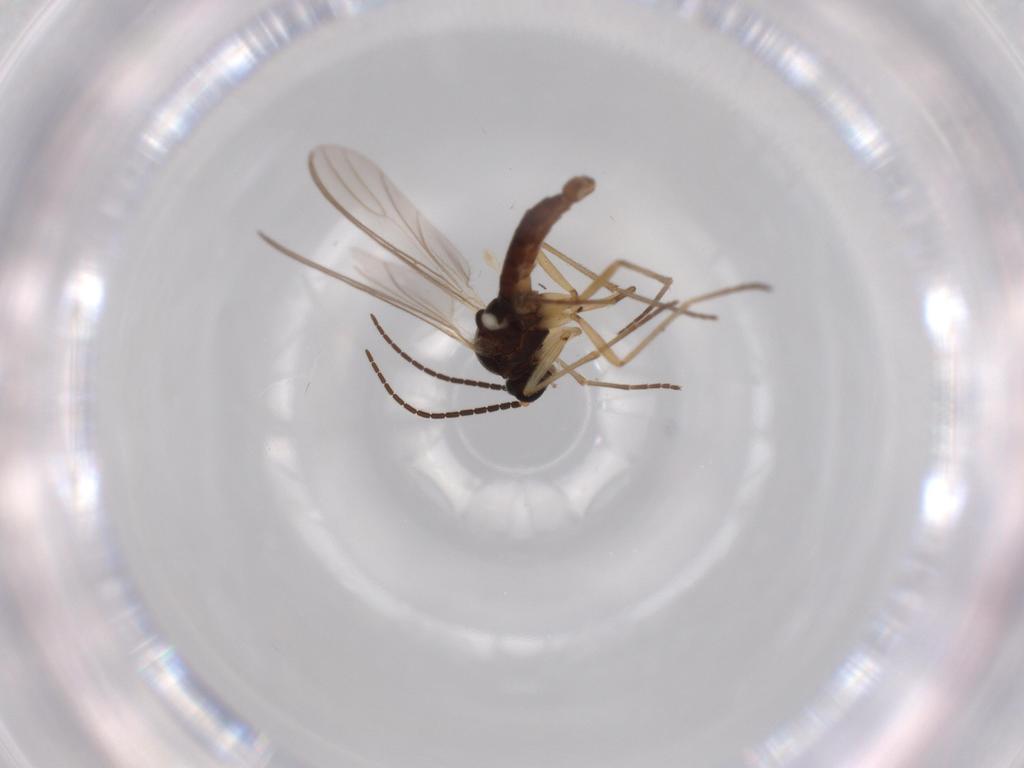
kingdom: Animalia
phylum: Arthropoda
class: Insecta
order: Diptera
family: Sciaridae
